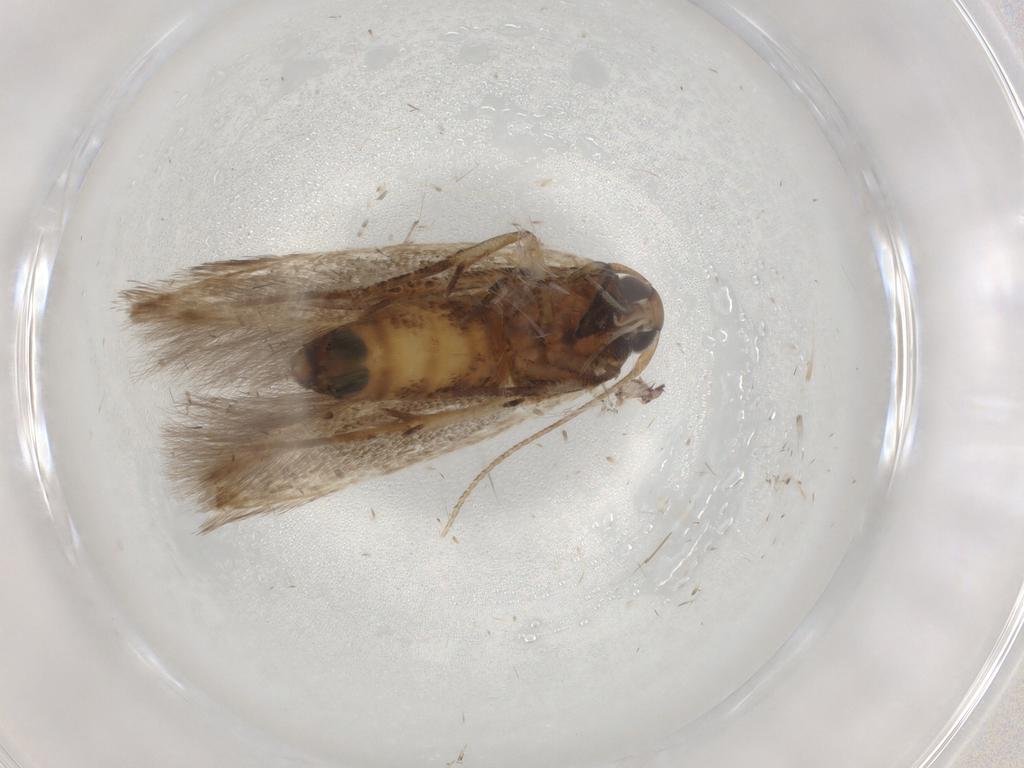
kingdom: Animalia
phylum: Arthropoda
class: Insecta
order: Lepidoptera
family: Cosmopterigidae
